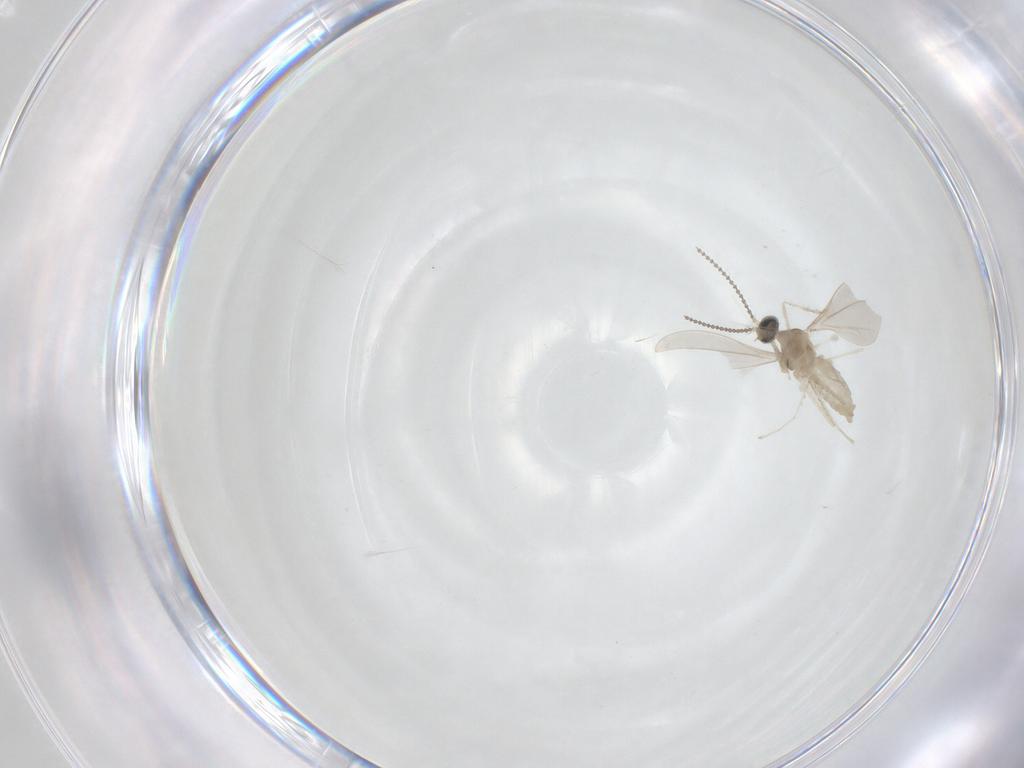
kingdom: Animalia
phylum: Arthropoda
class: Insecta
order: Diptera
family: Cecidomyiidae
